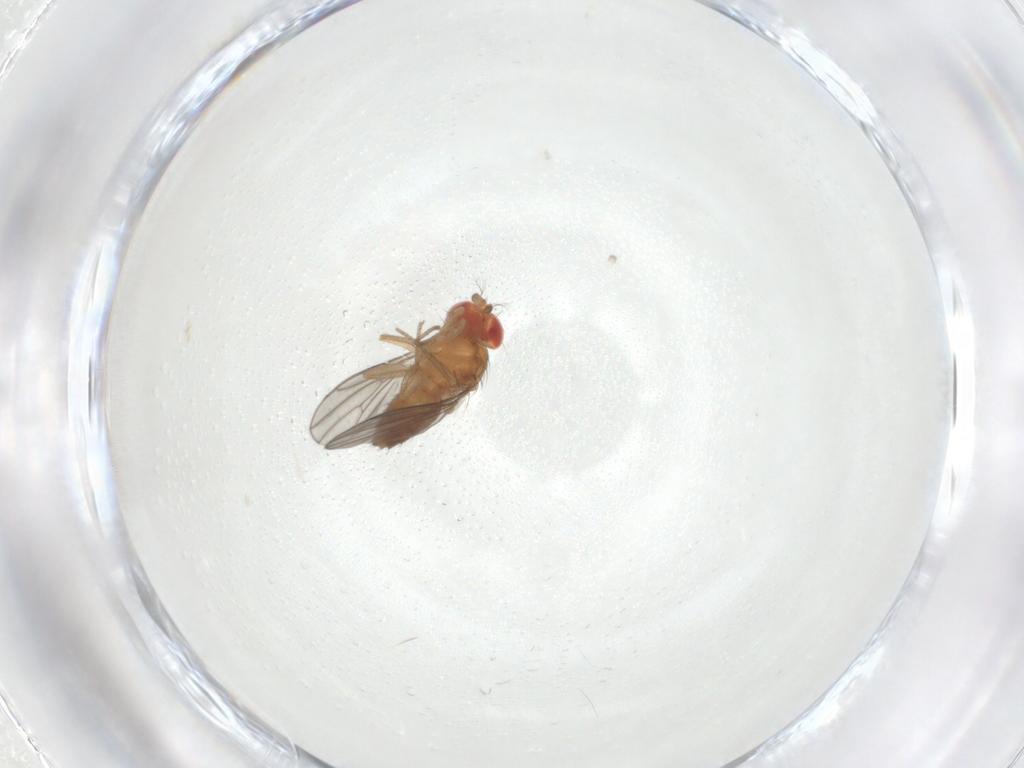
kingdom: Animalia
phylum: Arthropoda
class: Insecta
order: Diptera
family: Drosophilidae
